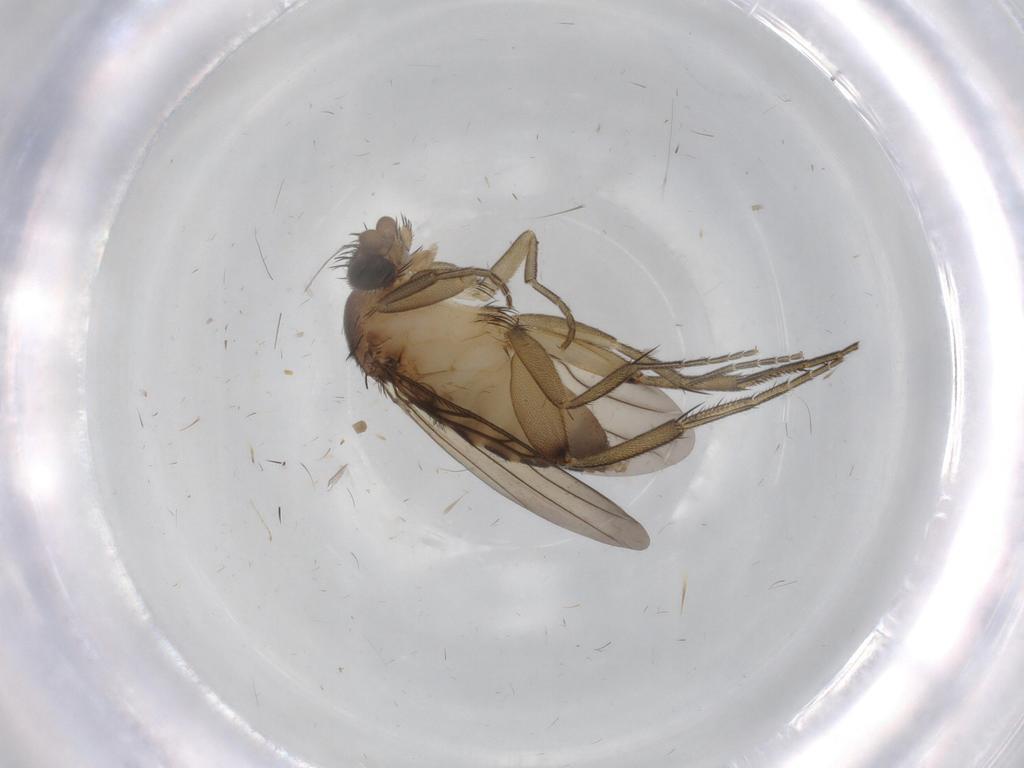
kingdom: Animalia
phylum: Arthropoda
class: Insecta
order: Diptera
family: Phoridae
